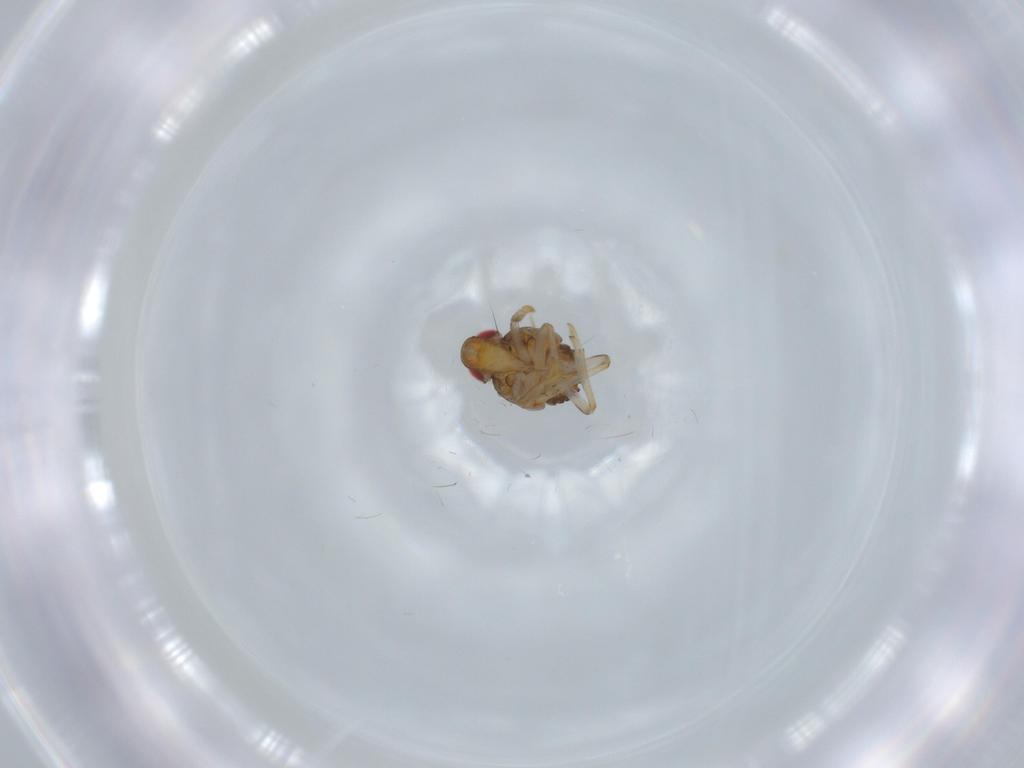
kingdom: Animalia
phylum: Arthropoda
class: Insecta
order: Hemiptera
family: Issidae
